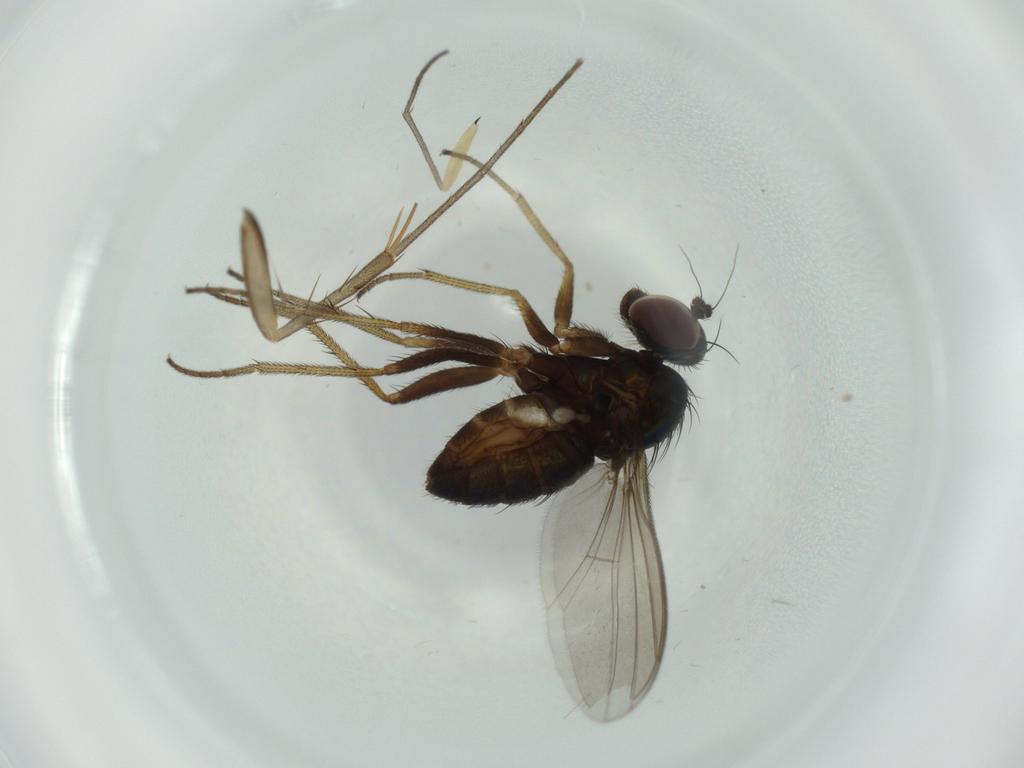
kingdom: Animalia
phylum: Arthropoda
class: Insecta
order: Diptera
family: Sciaridae
